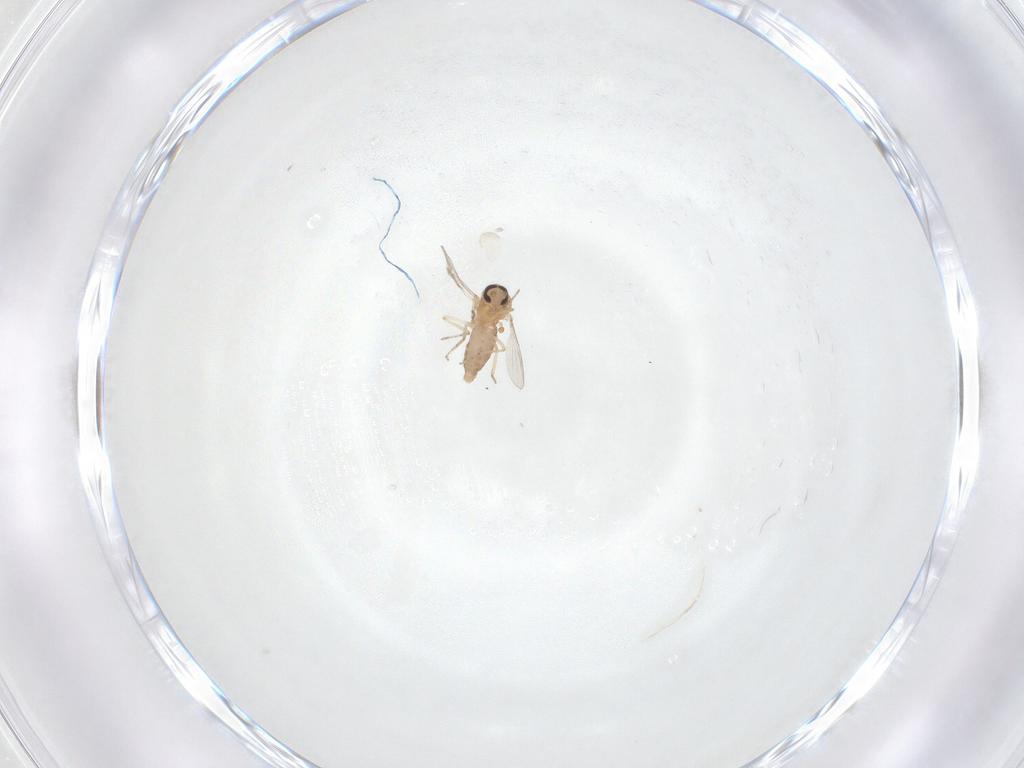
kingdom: Animalia
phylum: Arthropoda
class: Insecta
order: Diptera
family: Ceratopogonidae
